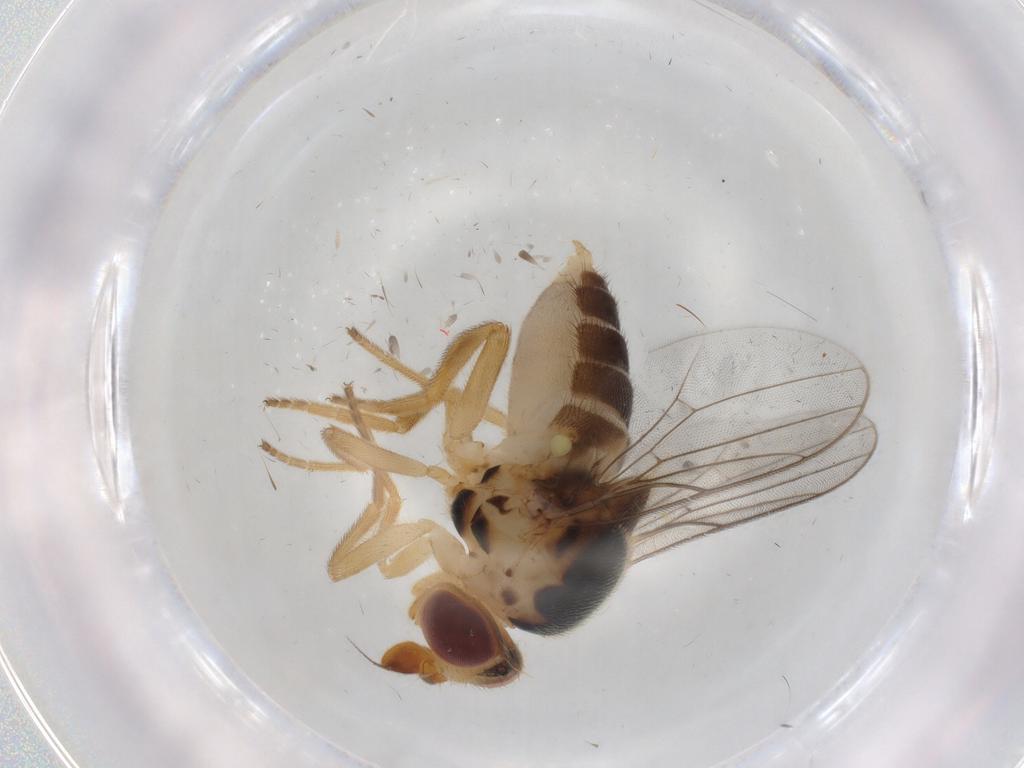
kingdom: Animalia
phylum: Arthropoda
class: Insecta
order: Diptera
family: Chloropidae
